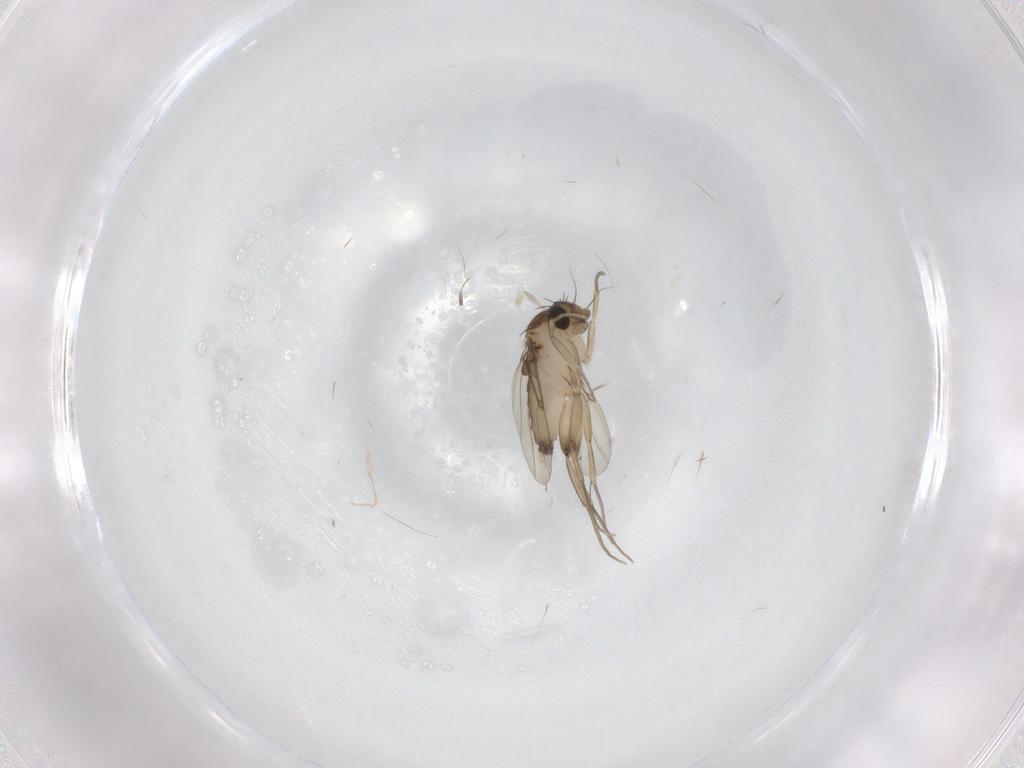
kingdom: Animalia
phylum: Arthropoda
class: Insecta
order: Diptera
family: Phoridae
